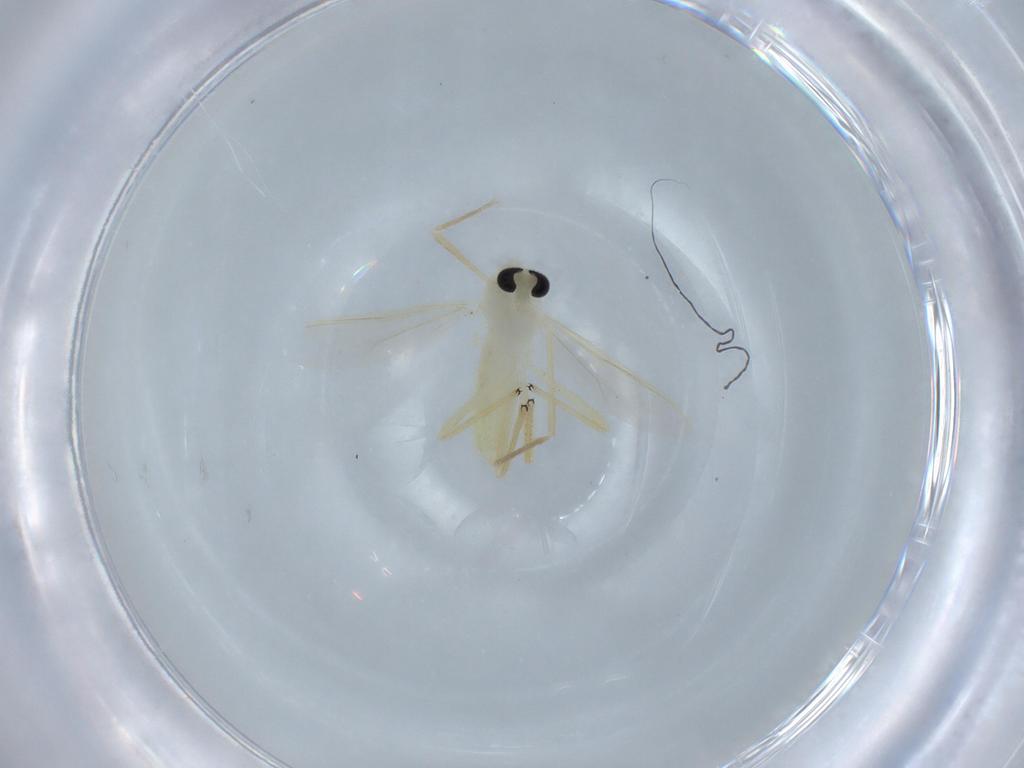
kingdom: Animalia
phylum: Arthropoda
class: Insecta
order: Diptera
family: Chironomidae
